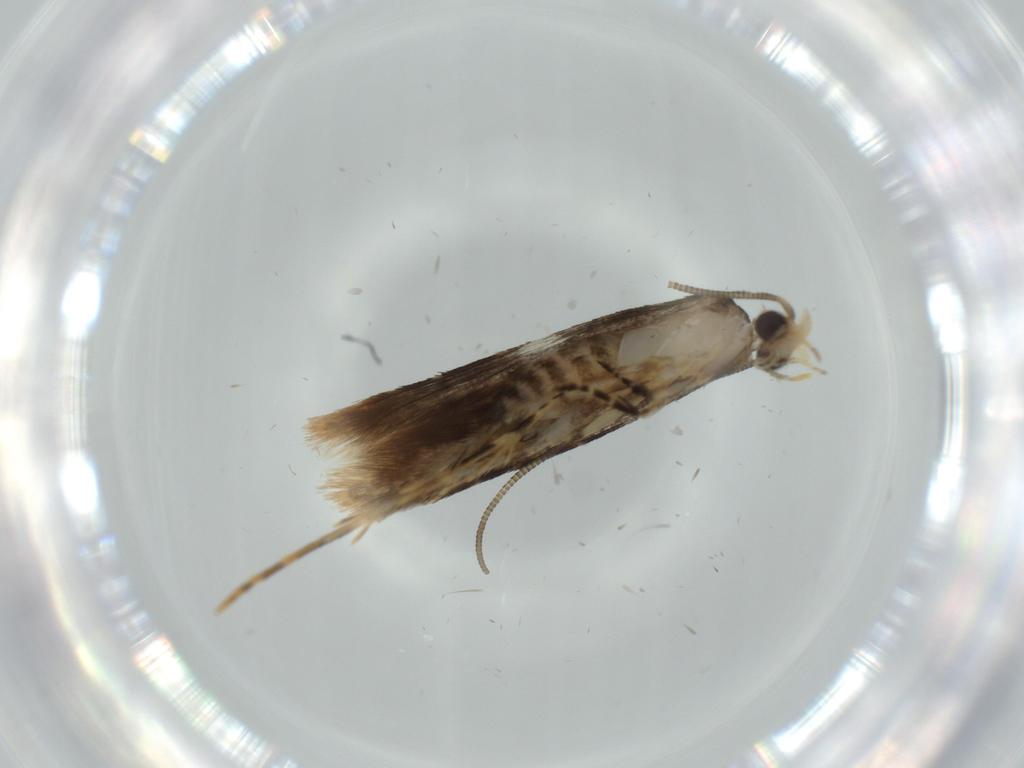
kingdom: Animalia
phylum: Arthropoda
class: Insecta
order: Lepidoptera
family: Tineidae
